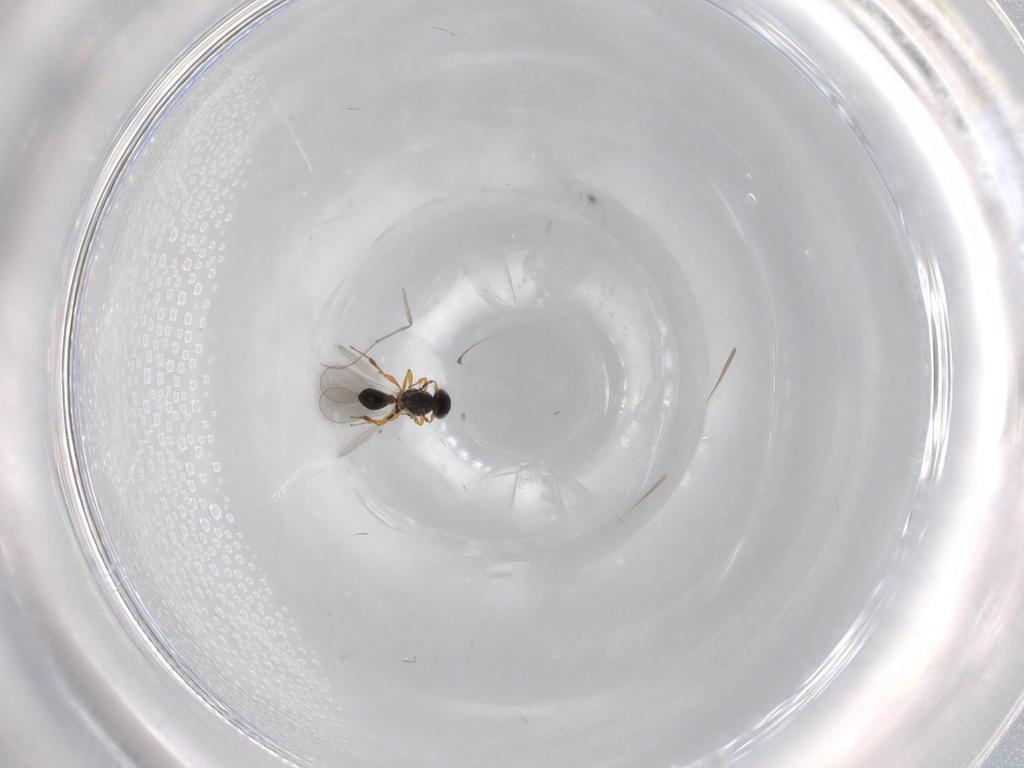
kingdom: Animalia
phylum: Arthropoda
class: Insecta
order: Hymenoptera
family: Platygastridae
